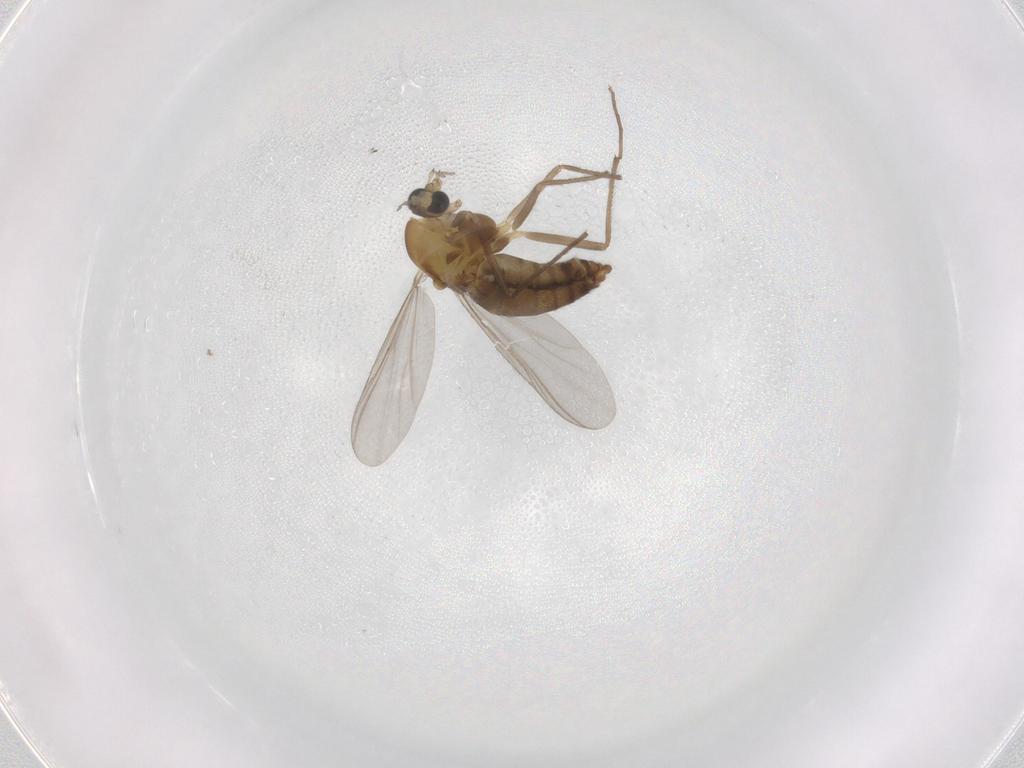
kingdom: Animalia
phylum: Arthropoda
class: Insecta
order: Diptera
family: Chironomidae
